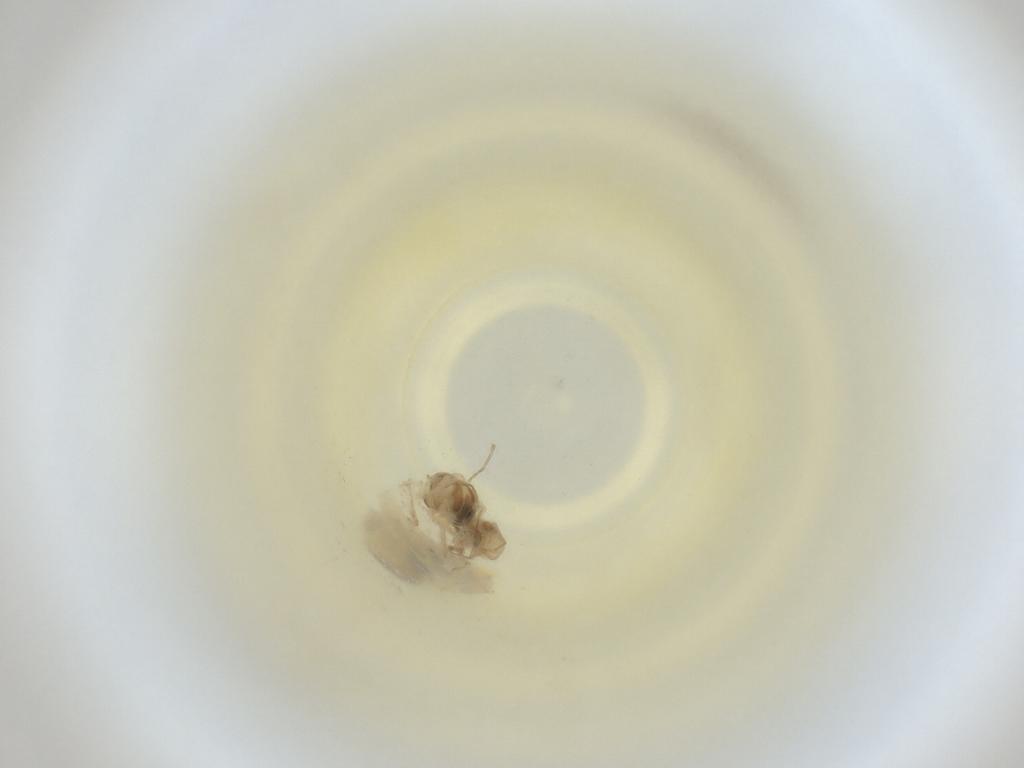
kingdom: Animalia
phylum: Arthropoda
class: Insecta
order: Diptera
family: Cecidomyiidae
